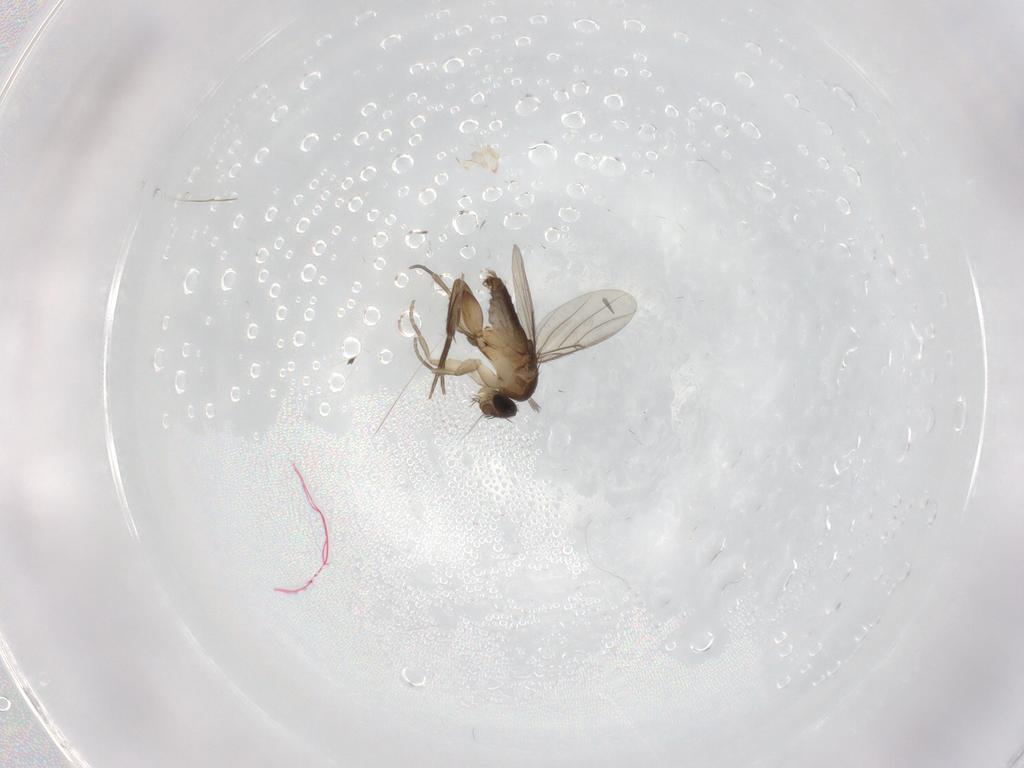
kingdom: Animalia
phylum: Arthropoda
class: Insecta
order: Diptera
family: Phoridae
